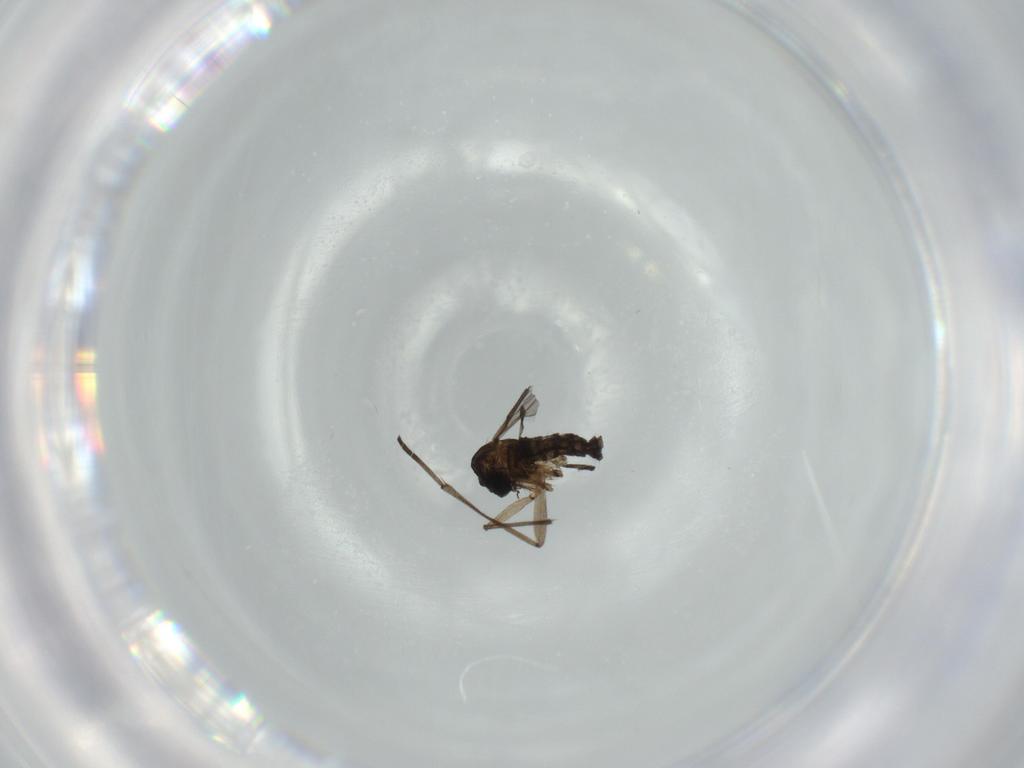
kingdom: Animalia
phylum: Arthropoda
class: Insecta
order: Diptera
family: Sciaridae
